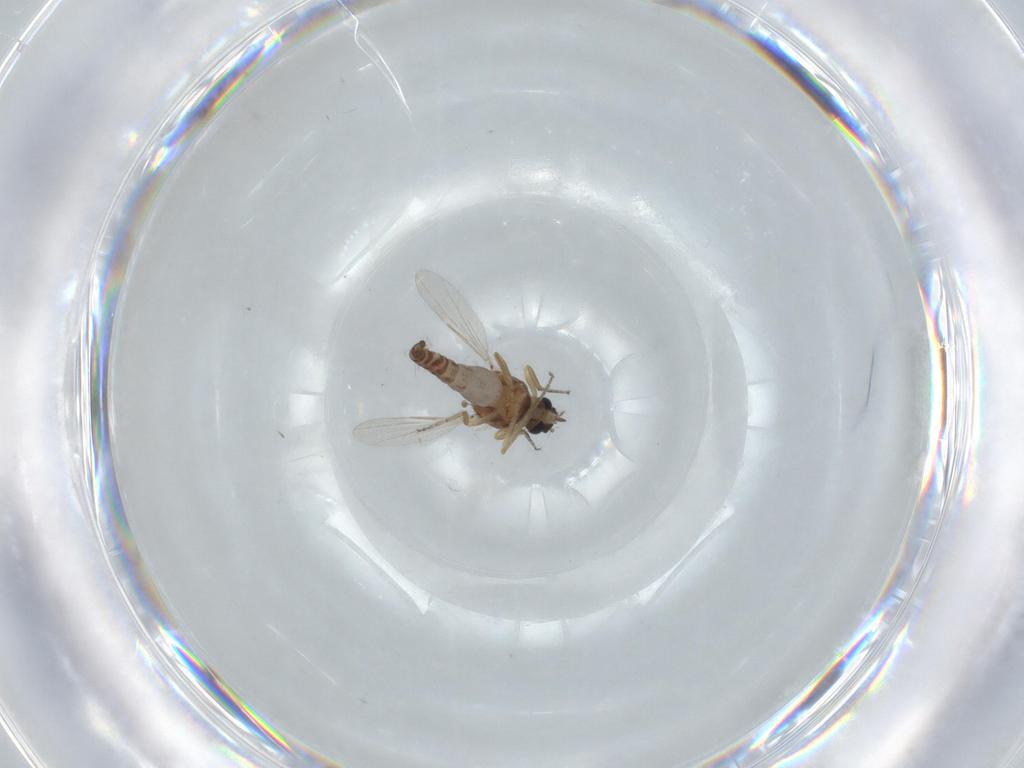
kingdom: Animalia
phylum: Arthropoda
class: Insecta
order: Diptera
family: Ceratopogonidae
